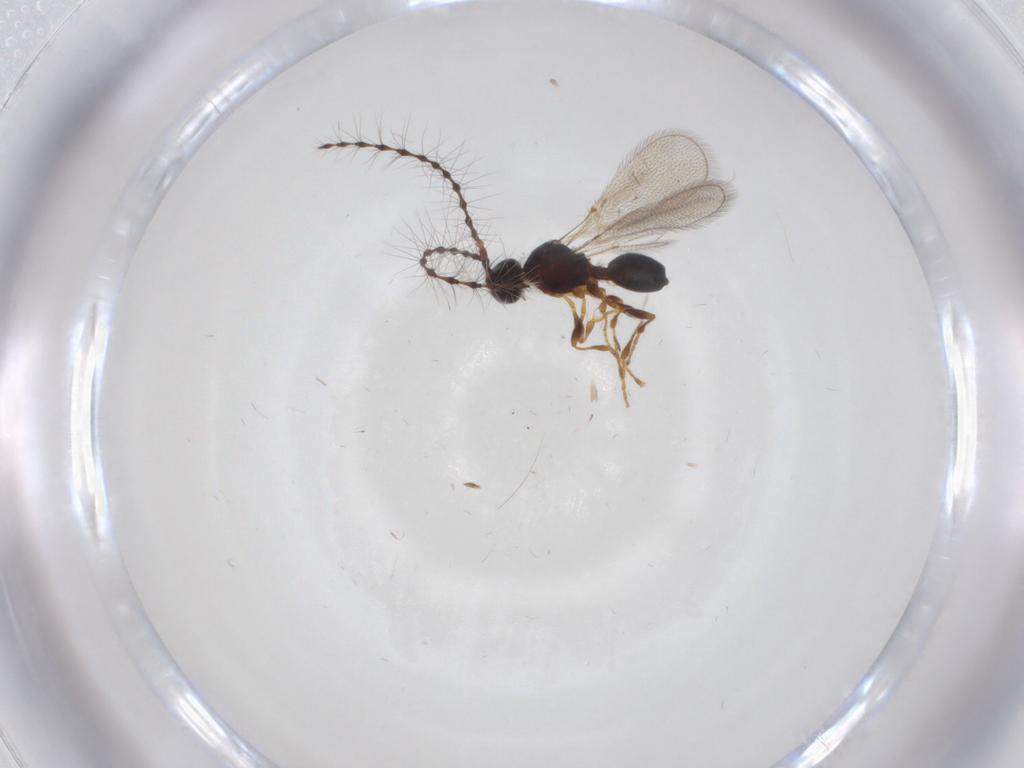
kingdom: Animalia
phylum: Arthropoda
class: Insecta
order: Hymenoptera
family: Diapriidae
